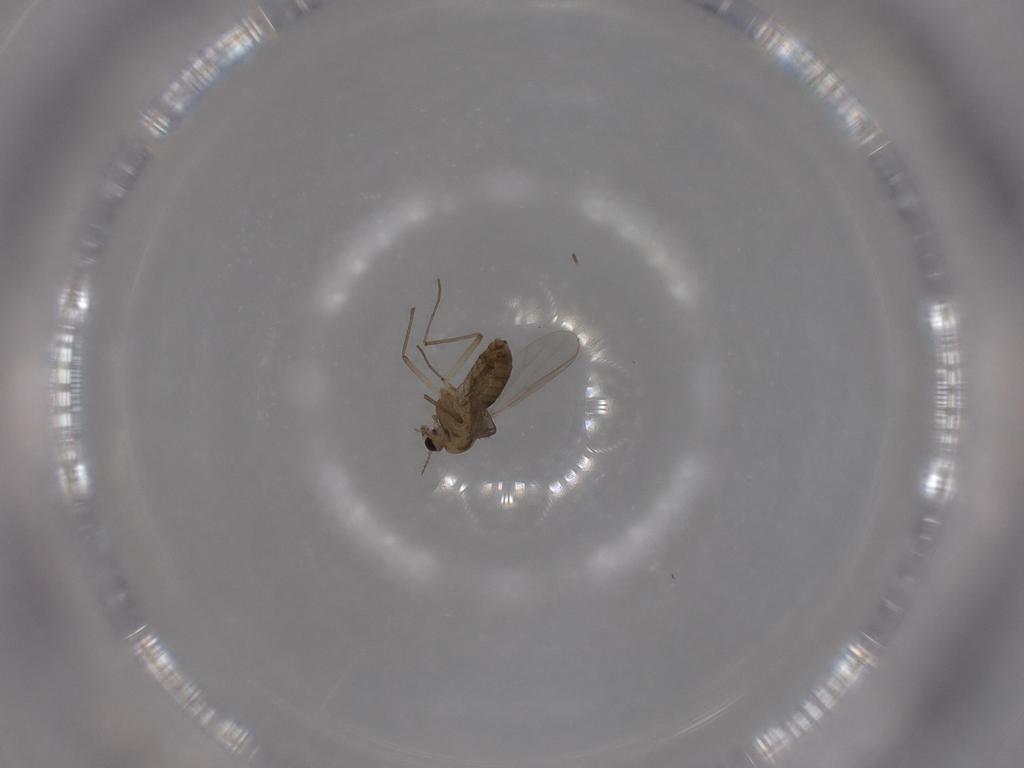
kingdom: Animalia
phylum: Arthropoda
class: Insecta
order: Diptera
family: Chironomidae
